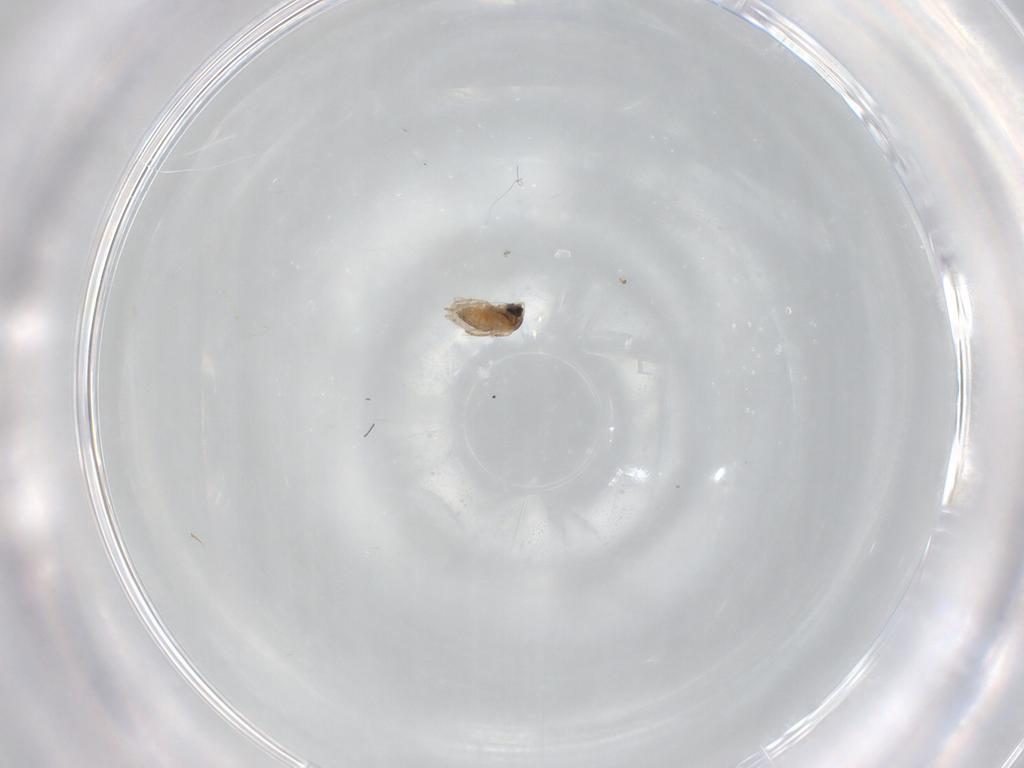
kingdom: Animalia
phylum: Arthropoda
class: Insecta
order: Diptera
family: Cecidomyiidae
